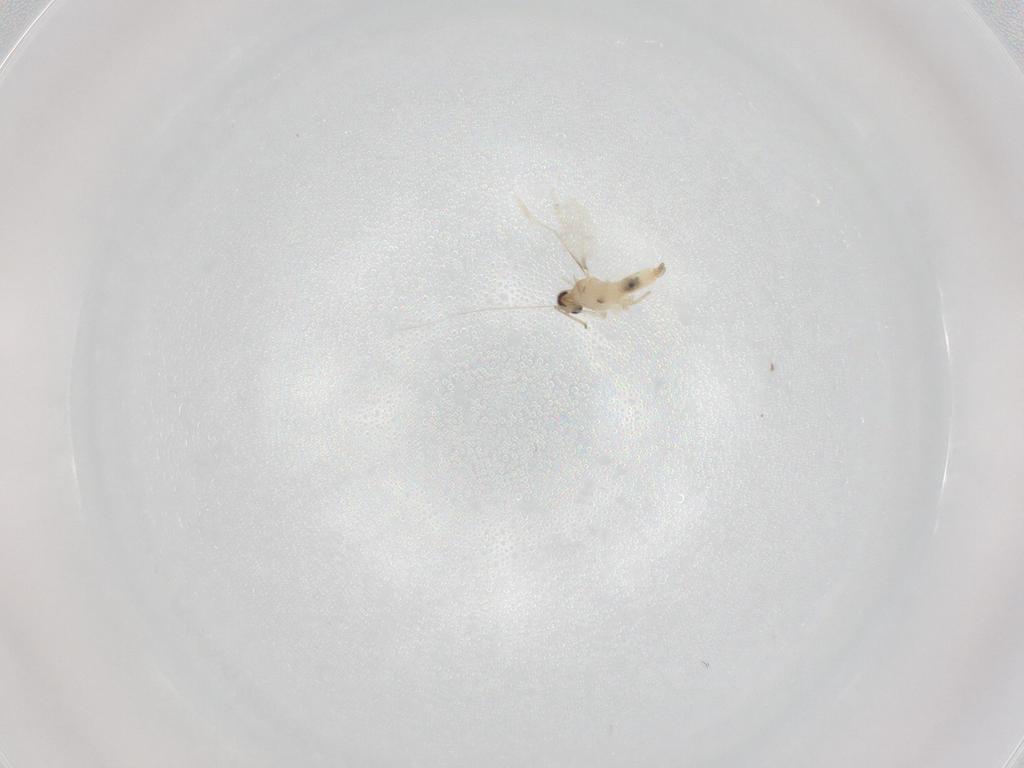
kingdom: Animalia
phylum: Arthropoda
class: Insecta
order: Diptera
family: Cecidomyiidae
